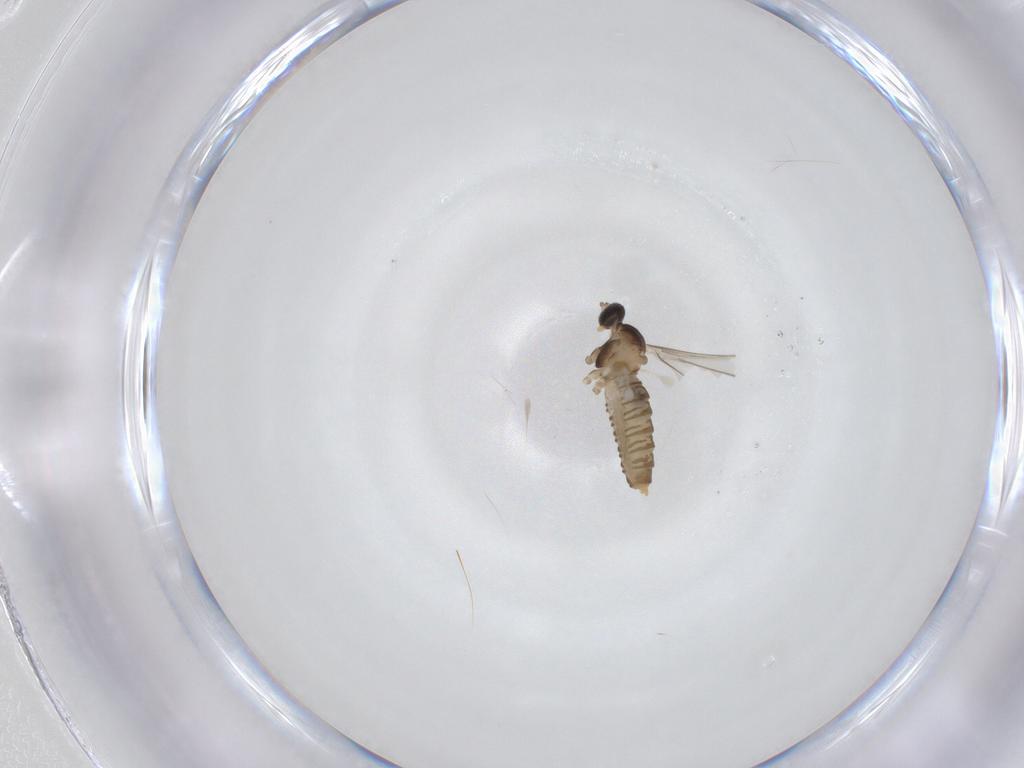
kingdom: Animalia
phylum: Arthropoda
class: Insecta
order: Diptera
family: Cecidomyiidae
